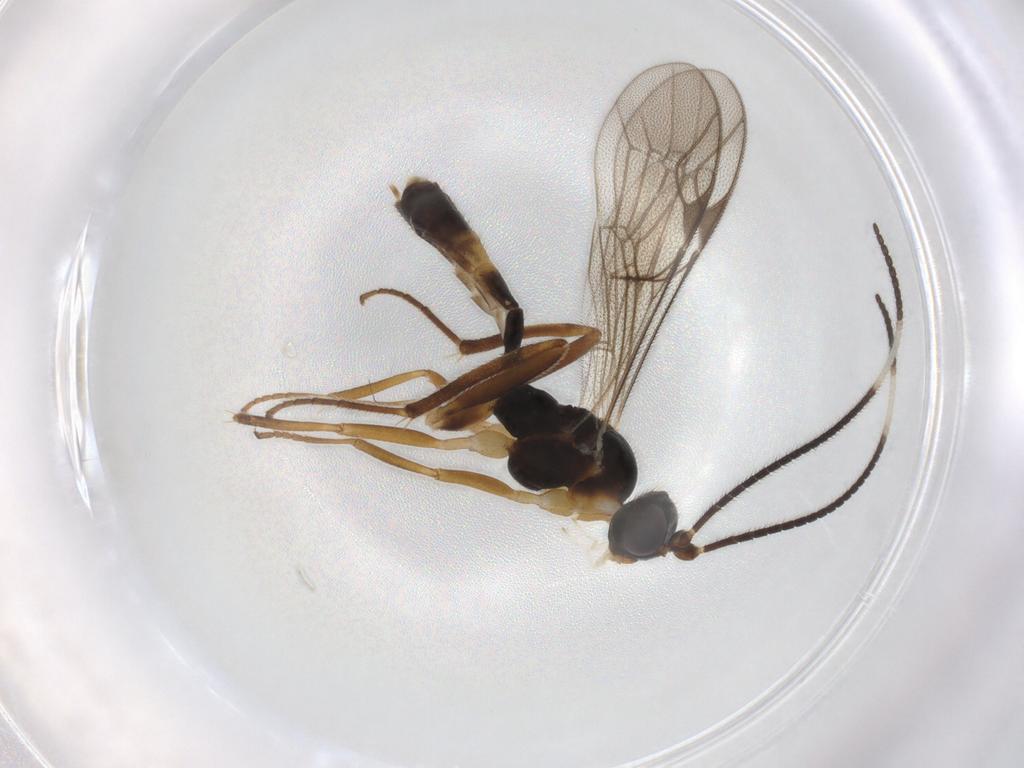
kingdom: Animalia
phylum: Arthropoda
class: Insecta
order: Hymenoptera
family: Ichneumonidae
